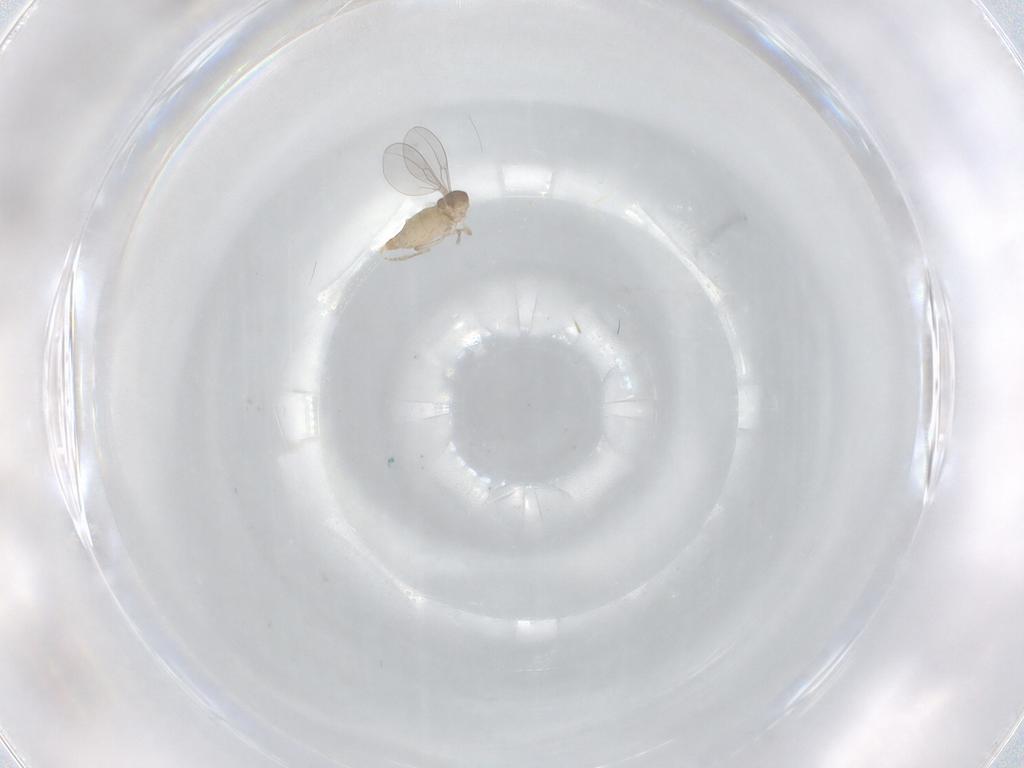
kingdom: Animalia
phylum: Arthropoda
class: Insecta
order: Diptera
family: Cecidomyiidae
